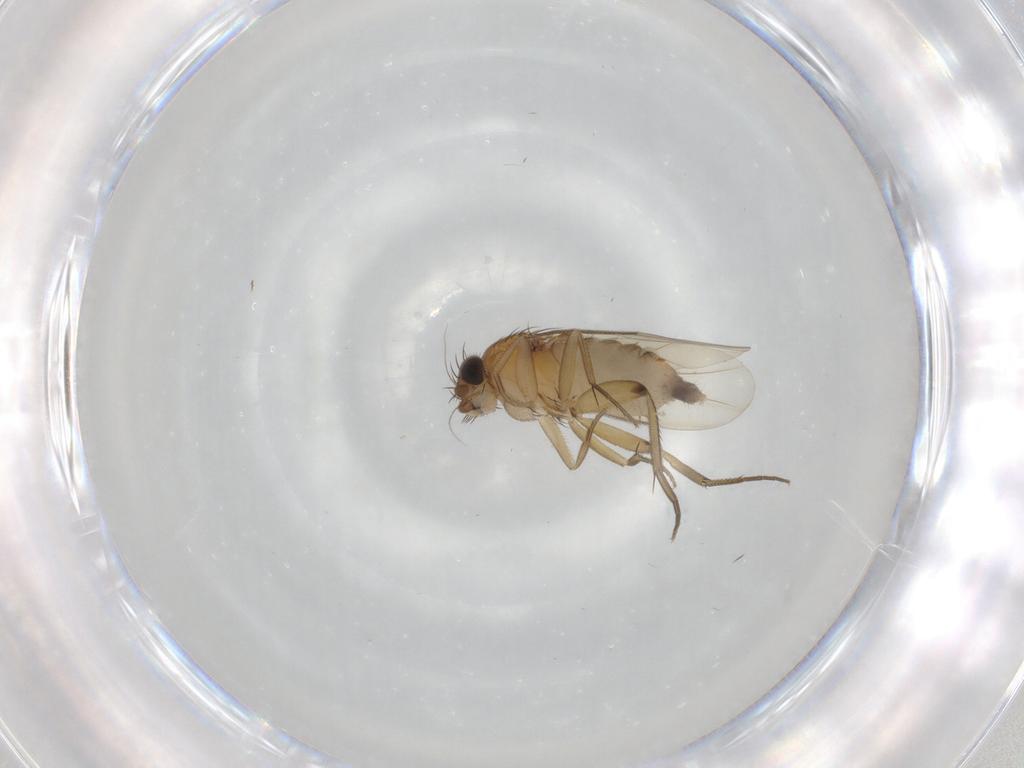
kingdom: Animalia
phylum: Arthropoda
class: Insecta
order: Diptera
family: Phoridae
